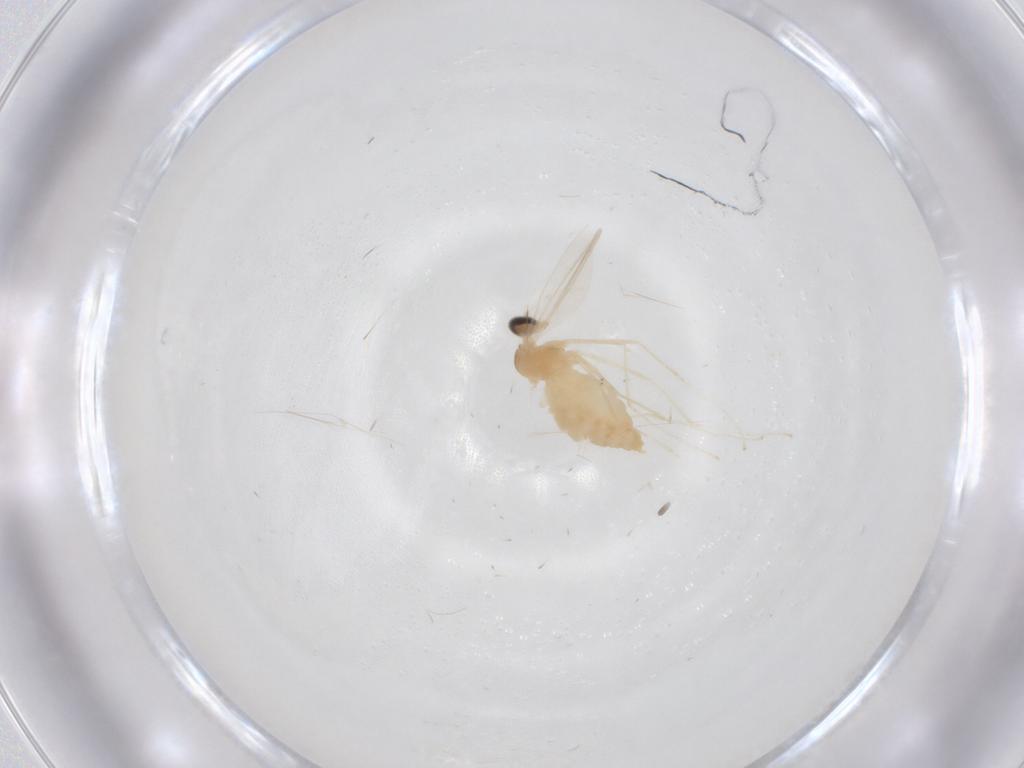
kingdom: Animalia
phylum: Arthropoda
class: Insecta
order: Diptera
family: Cecidomyiidae
